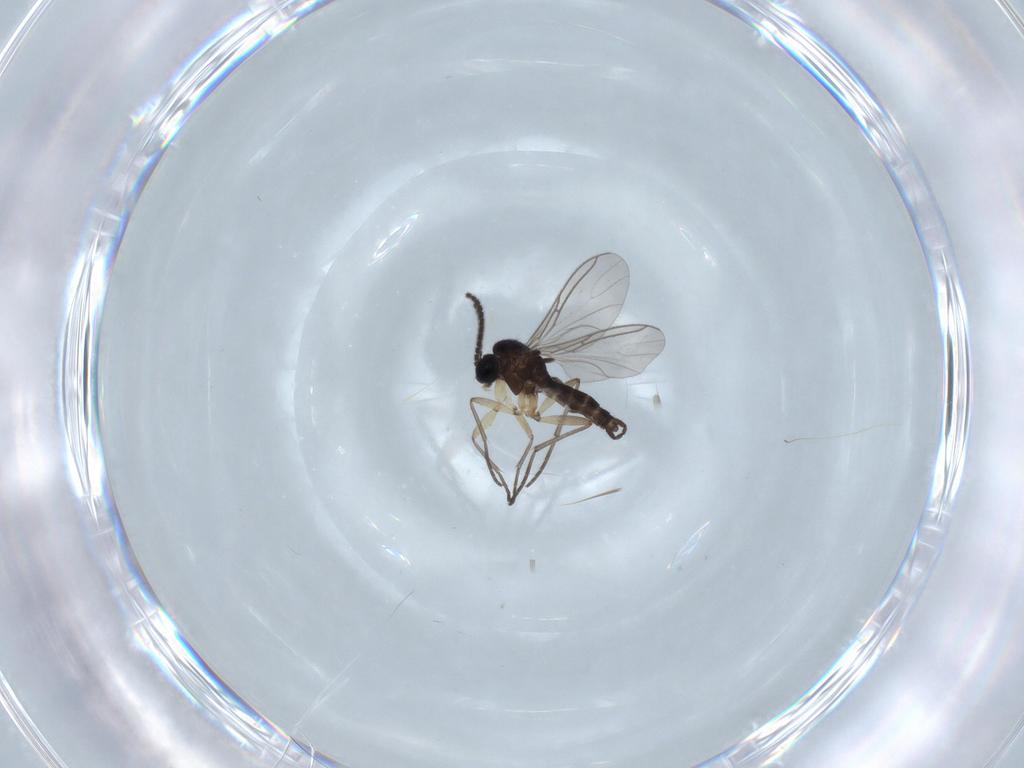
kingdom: Animalia
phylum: Arthropoda
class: Insecta
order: Diptera
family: Sciaridae
